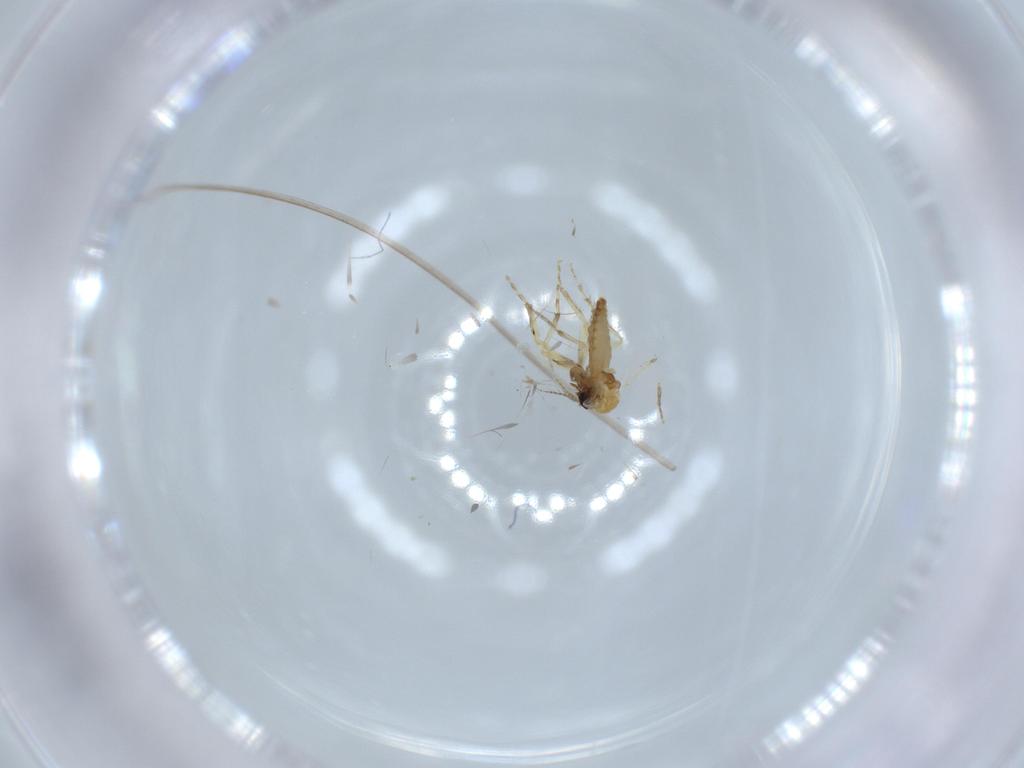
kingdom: Animalia
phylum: Arthropoda
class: Insecta
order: Diptera
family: Ceratopogonidae
